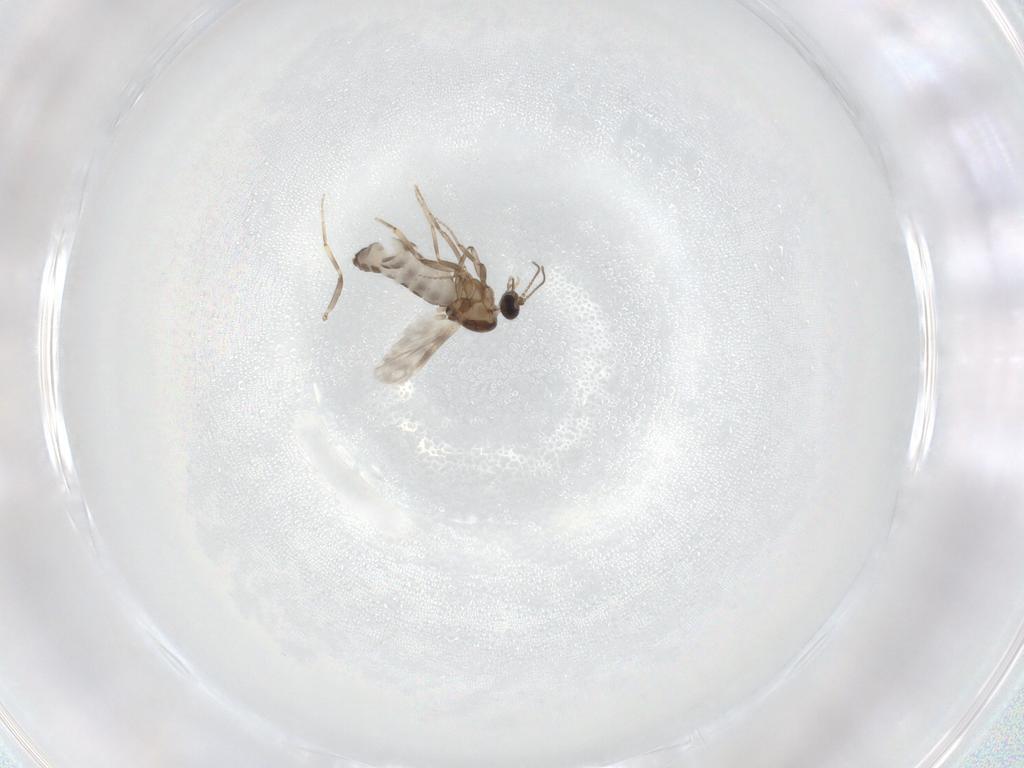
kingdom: Animalia
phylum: Arthropoda
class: Insecta
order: Diptera
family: Ceratopogonidae
